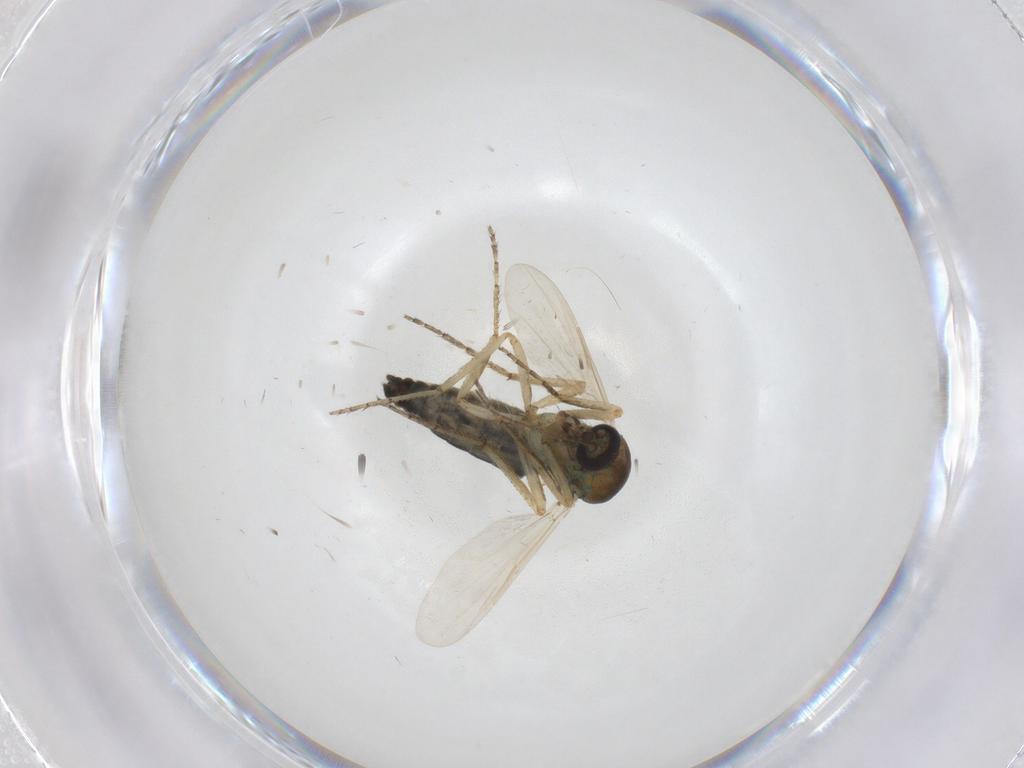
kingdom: Animalia
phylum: Arthropoda
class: Insecta
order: Diptera
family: Ceratopogonidae
